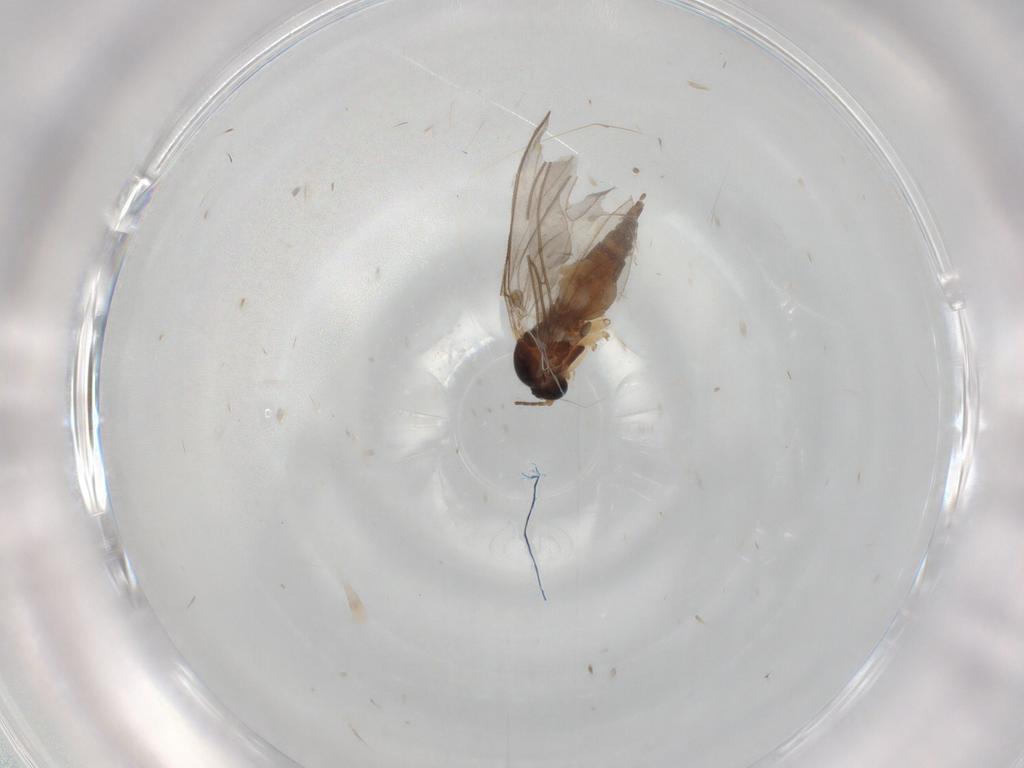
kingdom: Animalia
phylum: Arthropoda
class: Insecta
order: Diptera
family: Sciaridae
